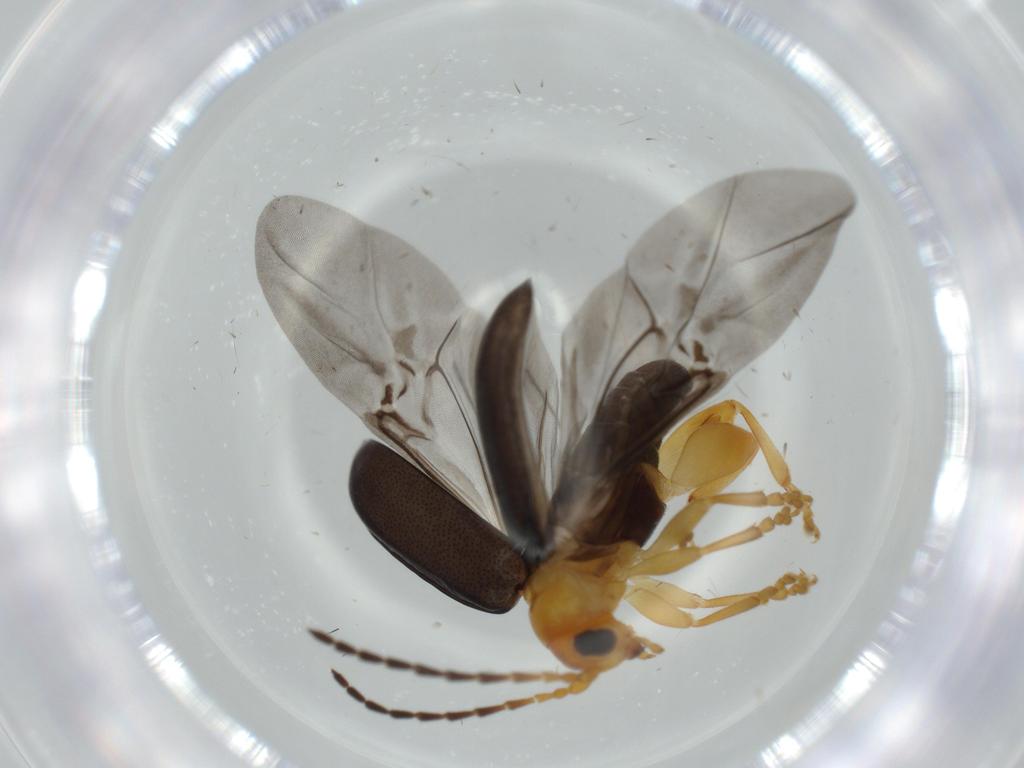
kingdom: Animalia
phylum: Arthropoda
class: Insecta
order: Coleoptera
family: Chrysomelidae
